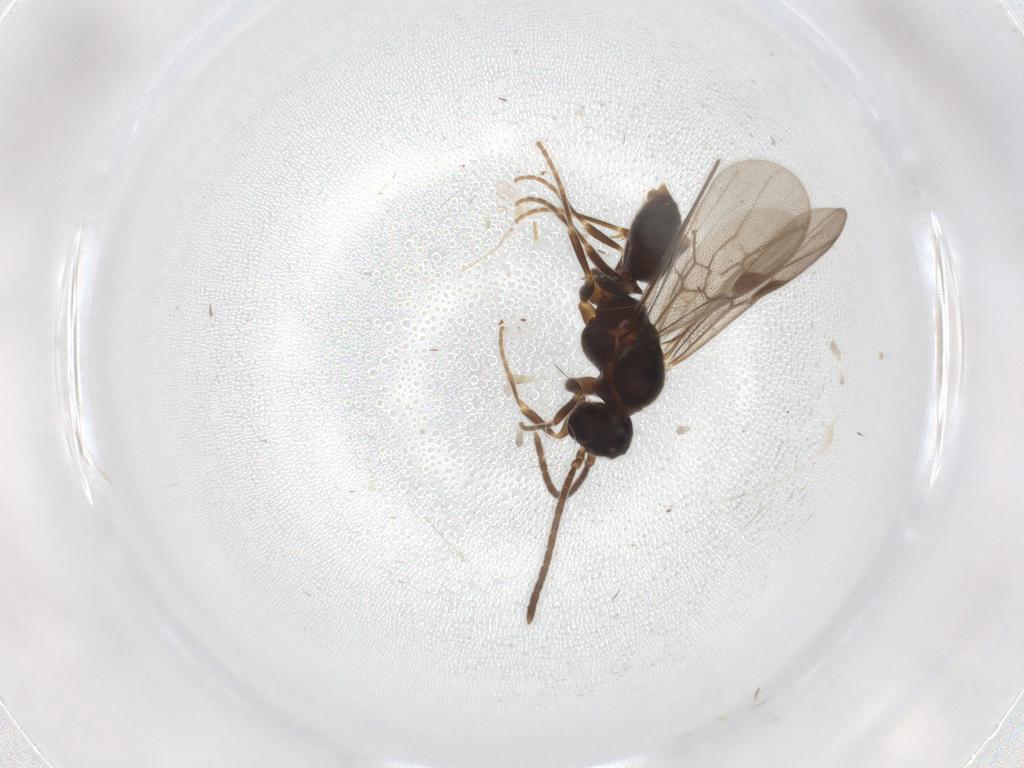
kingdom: Animalia
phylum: Arthropoda
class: Insecta
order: Hymenoptera
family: Formicidae
